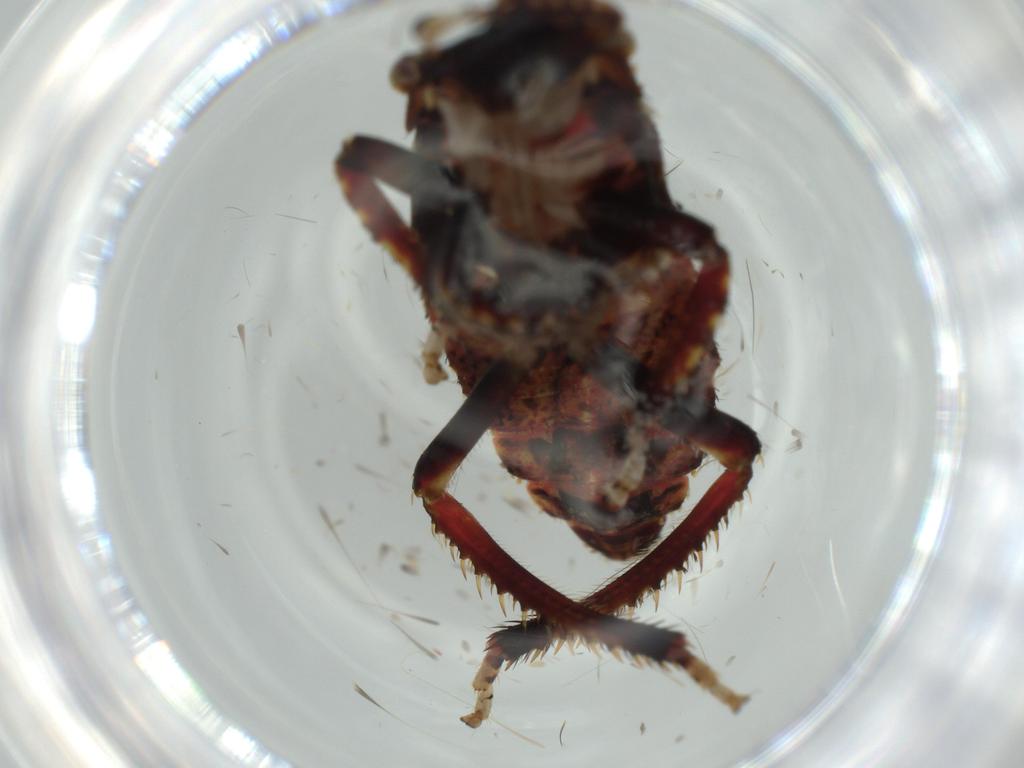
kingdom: Animalia
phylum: Arthropoda
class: Insecta
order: Hemiptera
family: Cicadellidae
